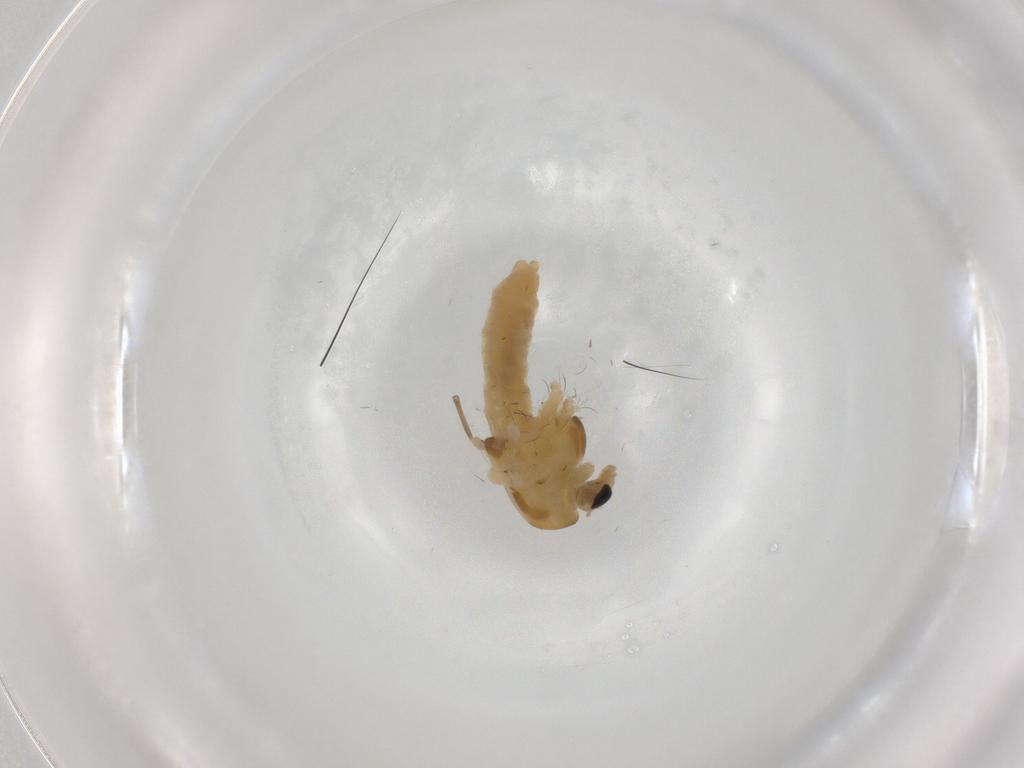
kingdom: Animalia
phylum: Arthropoda
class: Insecta
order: Diptera
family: Chironomidae
